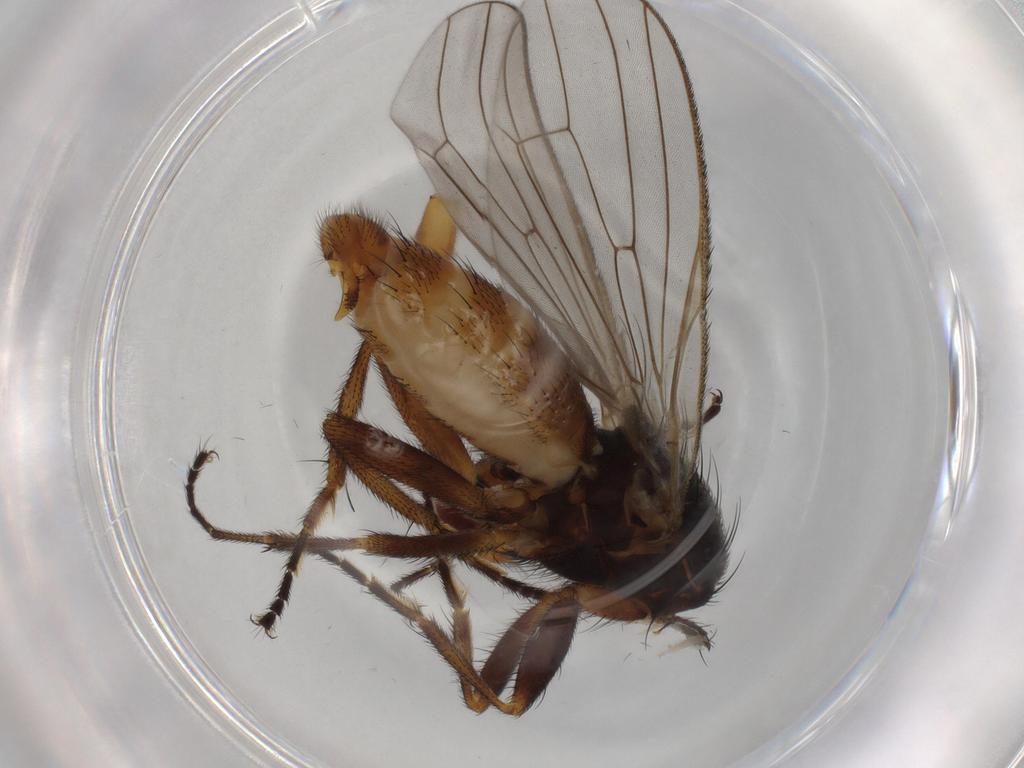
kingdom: Animalia
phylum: Arthropoda
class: Insecta
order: Diptera
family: Heleomyzidae
